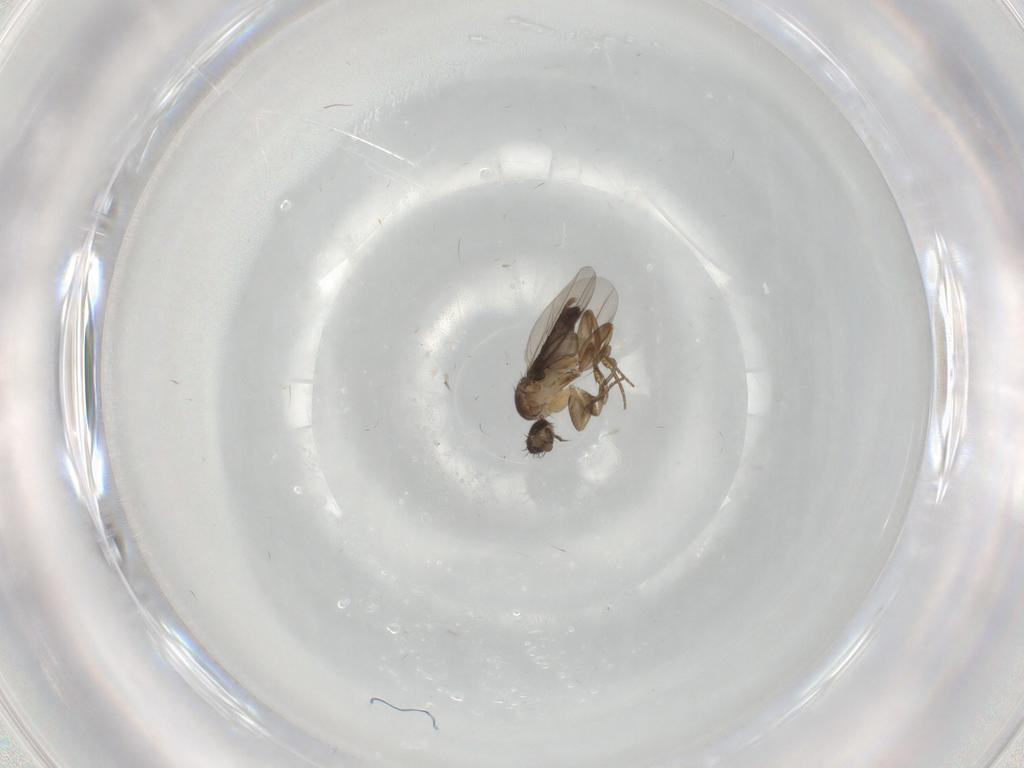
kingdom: Animalia
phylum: Arthropoda
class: Insecta
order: Diptera
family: Phoridae
